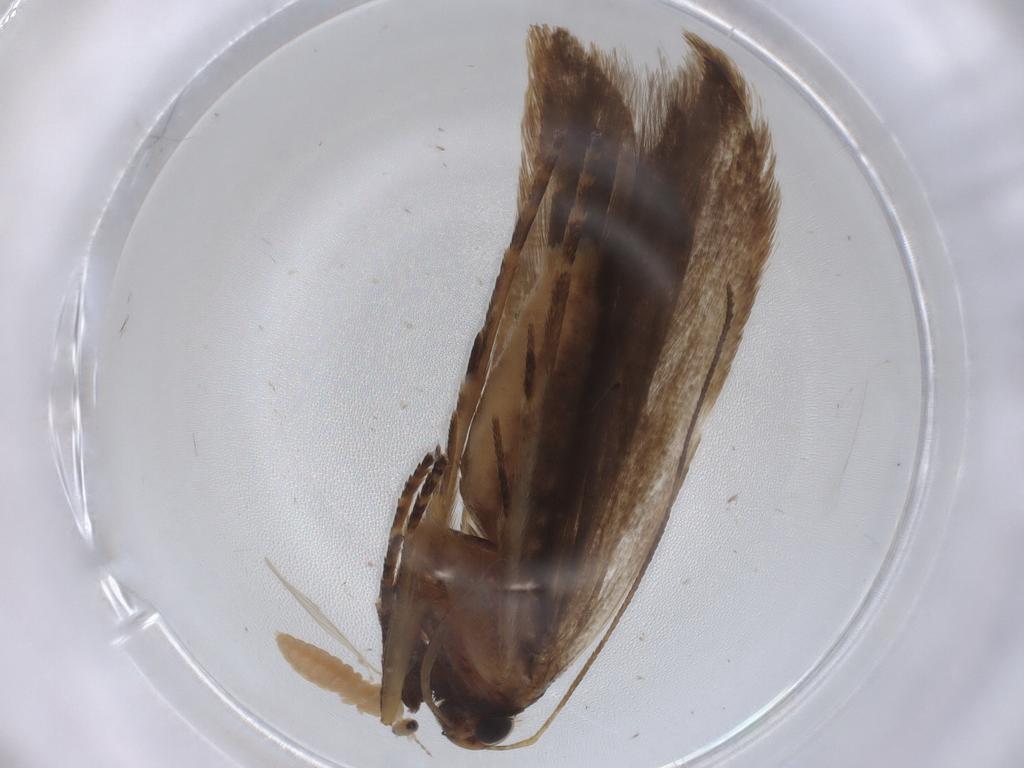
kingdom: Animalia
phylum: Arthropoda
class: Insecta
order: Lepidoptera
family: Gelechiidae
